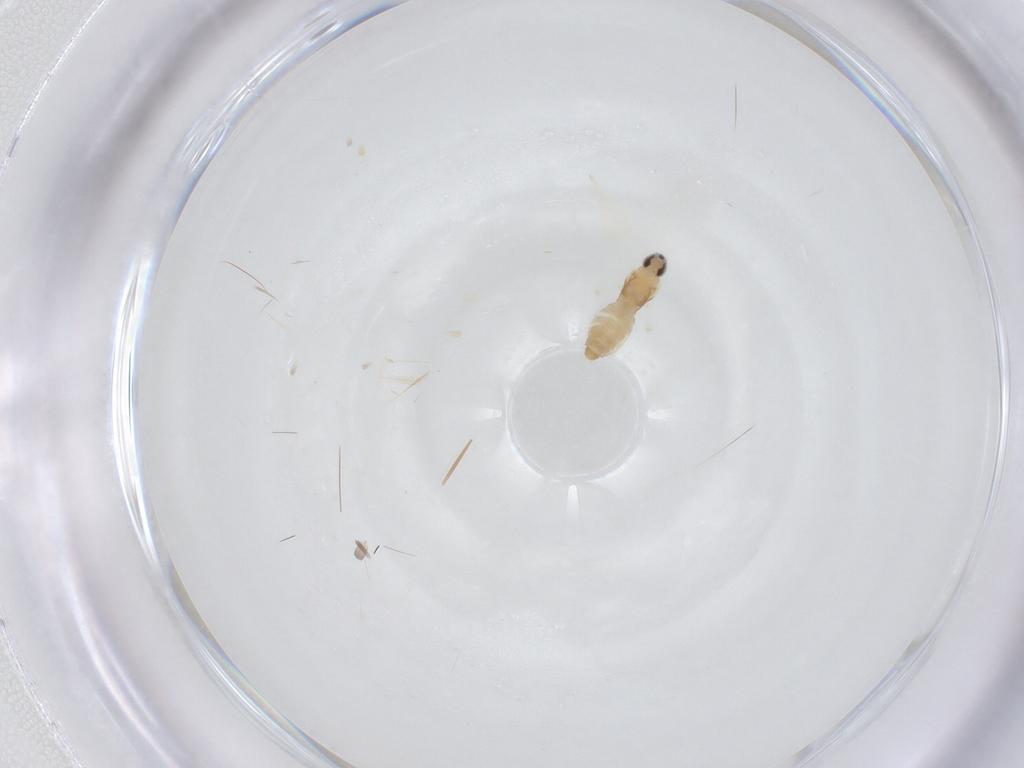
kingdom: Animalia
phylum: Arthropoda
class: Insecta
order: Diptera
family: Cecidomyiidae
